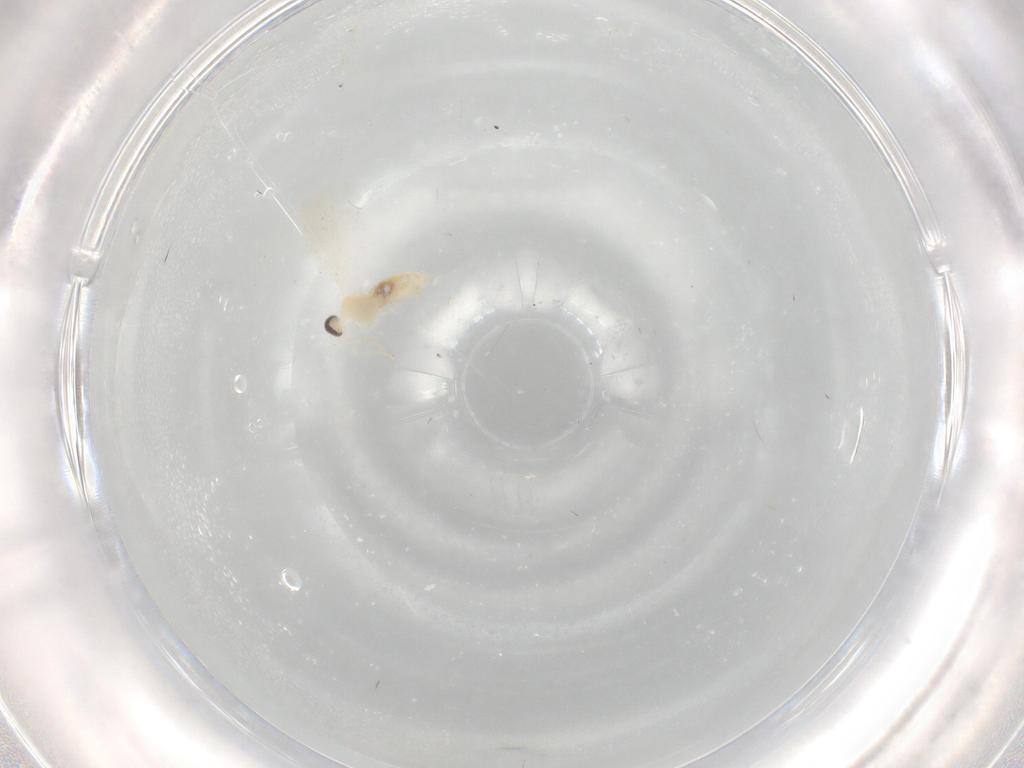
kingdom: Animalia
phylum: Arthropoda
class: Insecta
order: Diptera
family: Cecidomyiidae
